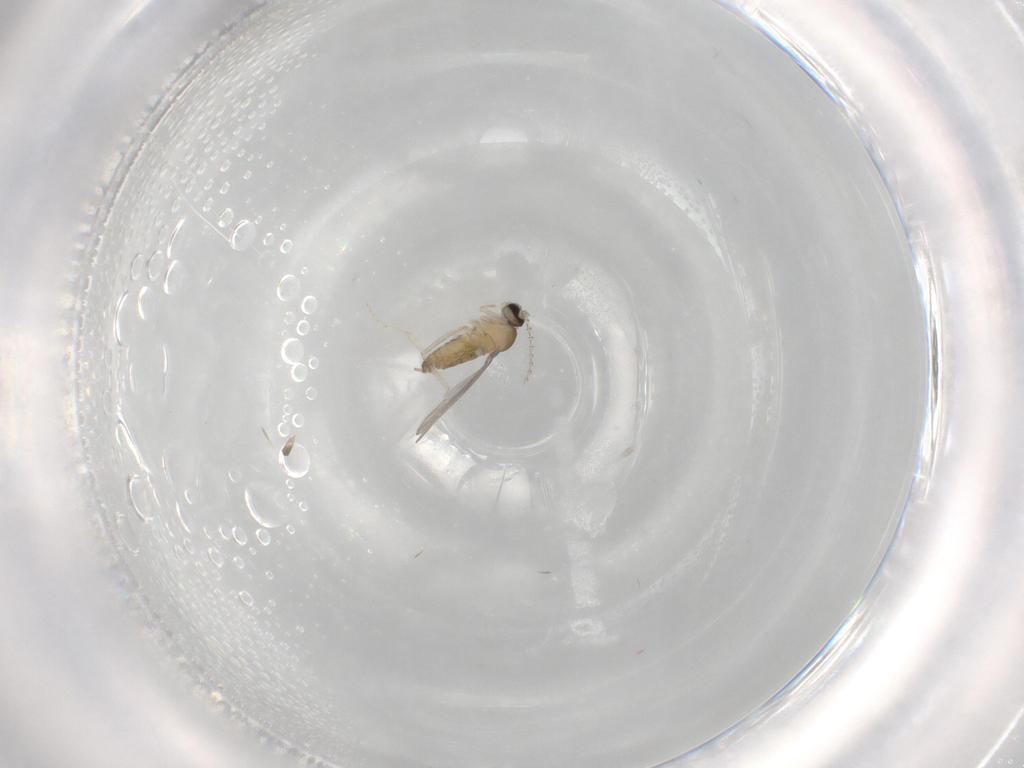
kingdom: Animalia
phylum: Arthropoda
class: Insecta
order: Diptera
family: Cecidomyiidae
